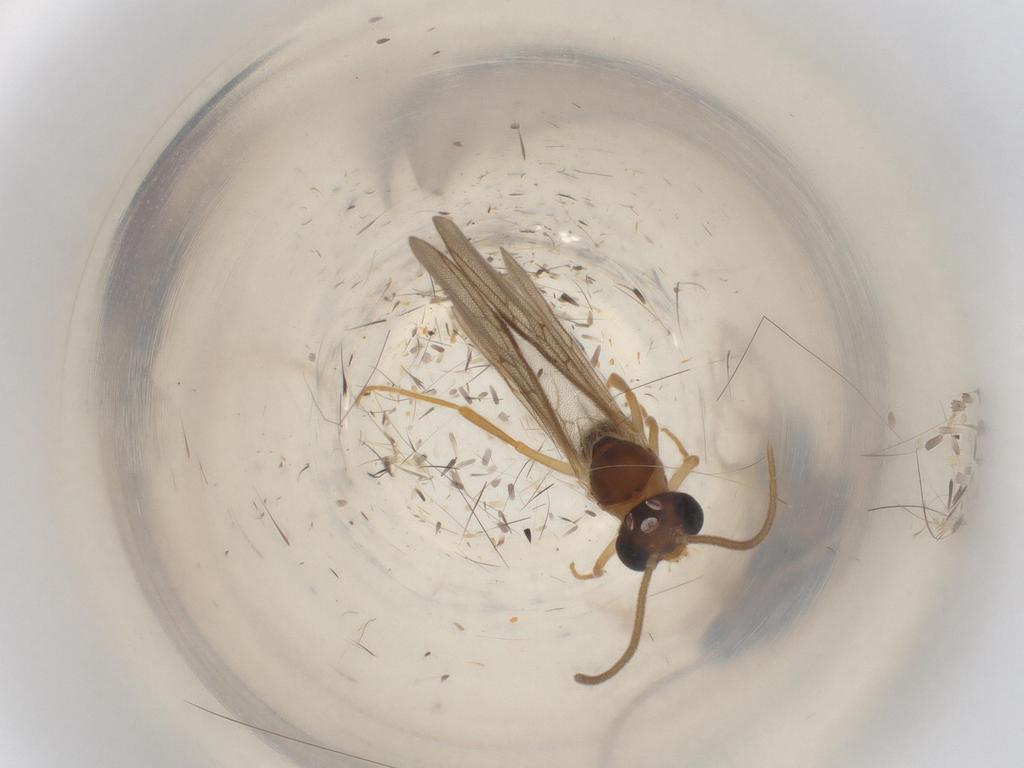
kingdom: Animalia
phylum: Arthropoda
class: Insecta
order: Hymenoptera
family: Formicidae
